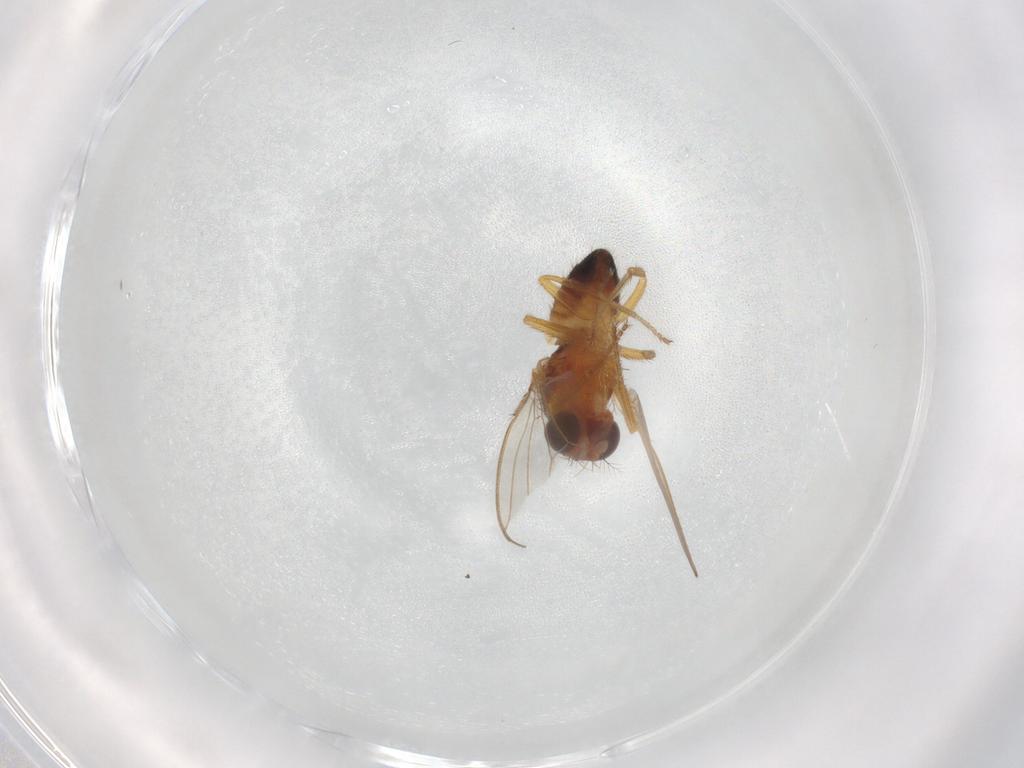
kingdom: Animalia
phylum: Arthropoda
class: Insecta
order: Diptera
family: Drosophilidae
